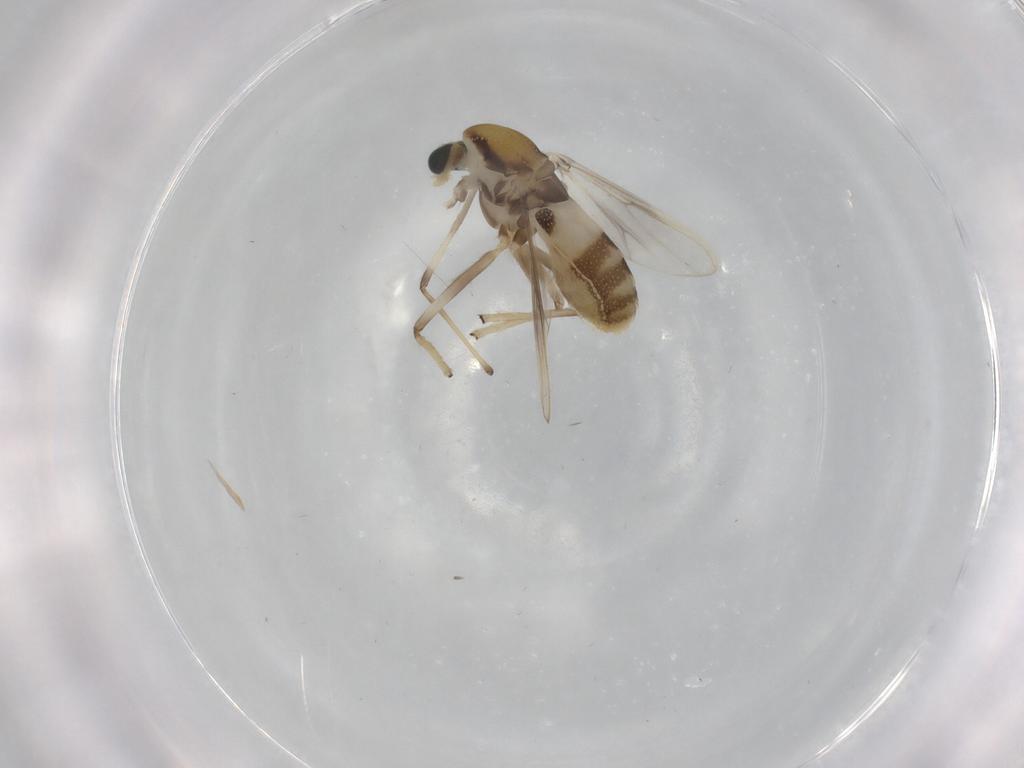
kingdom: Animalia
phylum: Arthropoda
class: Insecta
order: Diptera
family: Chironomidae
